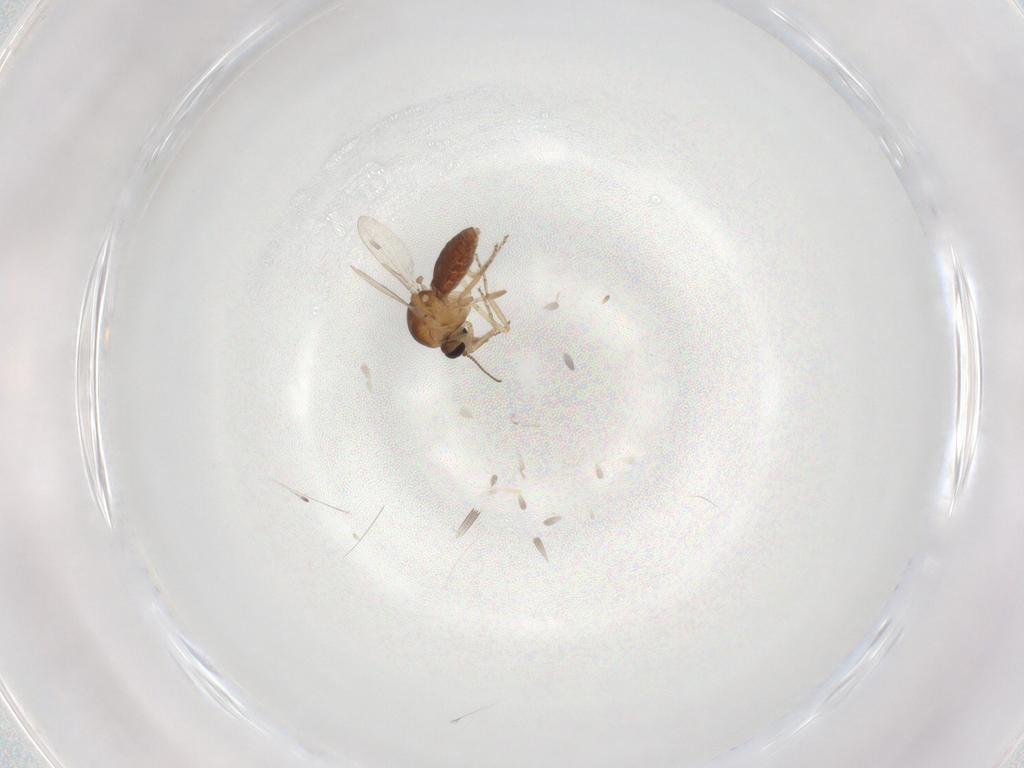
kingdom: Animalia
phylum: Arthropoda
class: Insecta
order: Diptera
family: Ceratopogonidae
